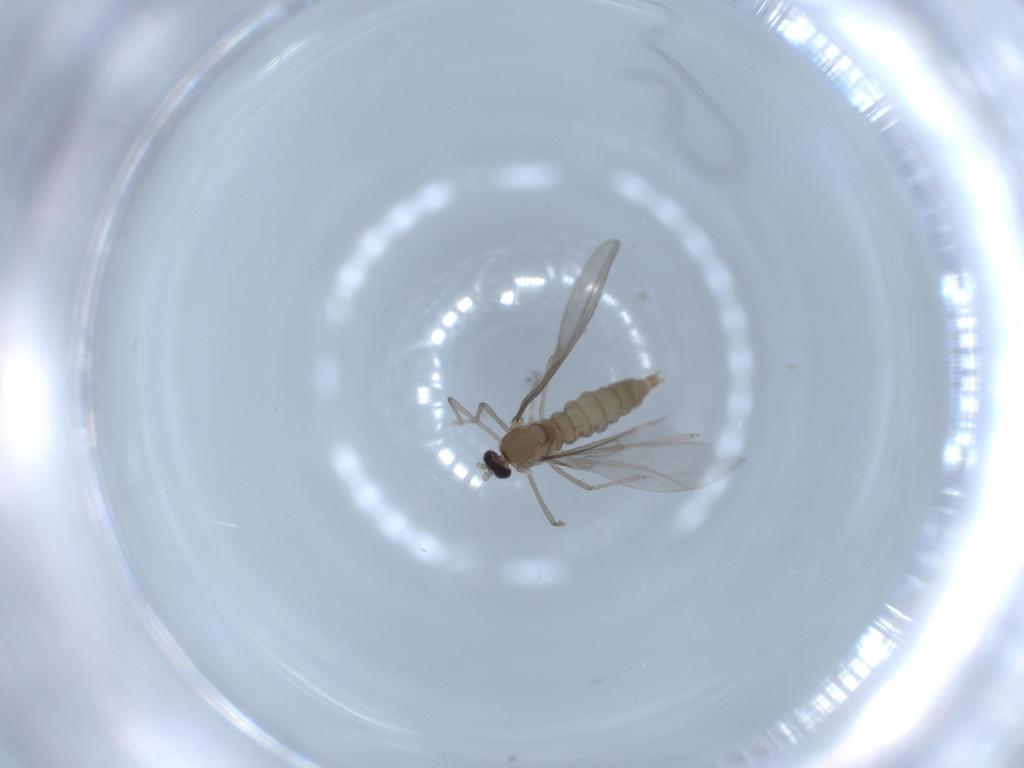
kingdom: Animalia
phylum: Arthropoda
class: Insecta
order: Diptera
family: Cecidomyiidae
